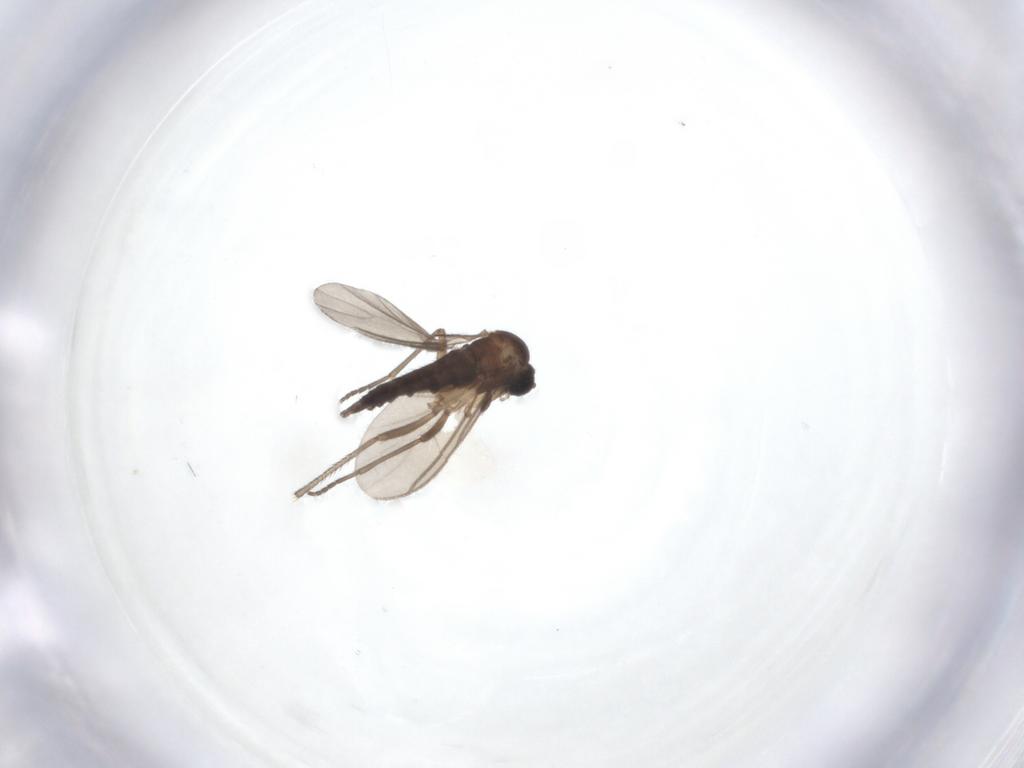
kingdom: Animalia
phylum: Arthropoda
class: Insecta
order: Diptera
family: Sciaridae
